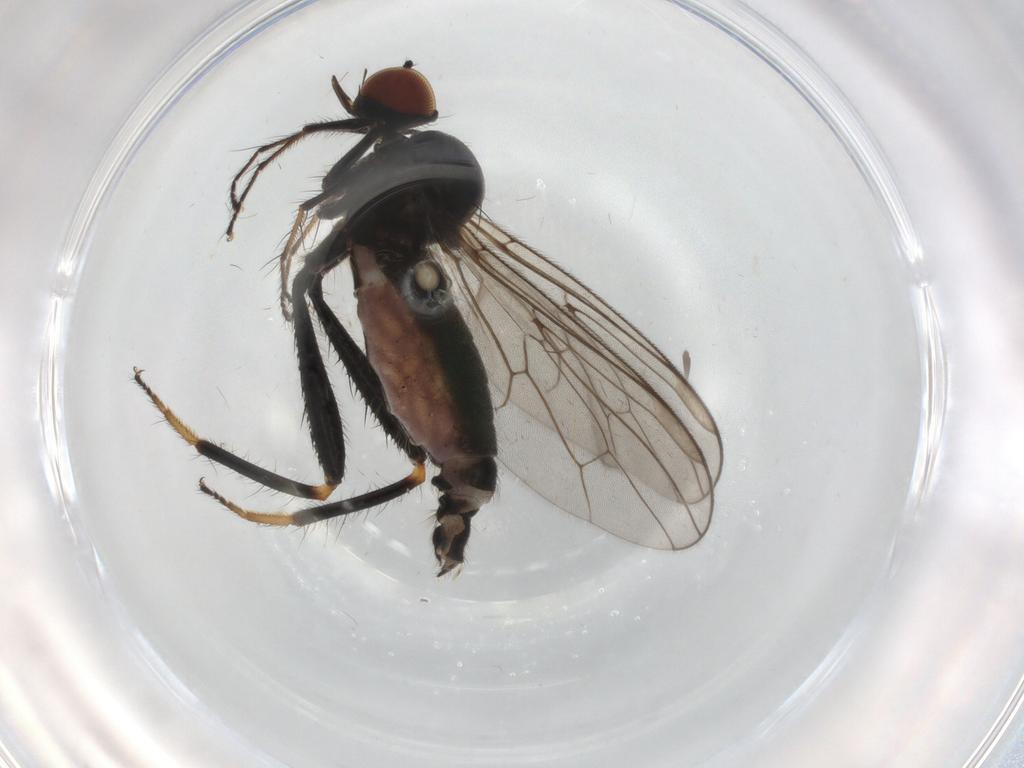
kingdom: Animalia
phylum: Arthropoda
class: Insecta
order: Diptera
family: Hybotidae
